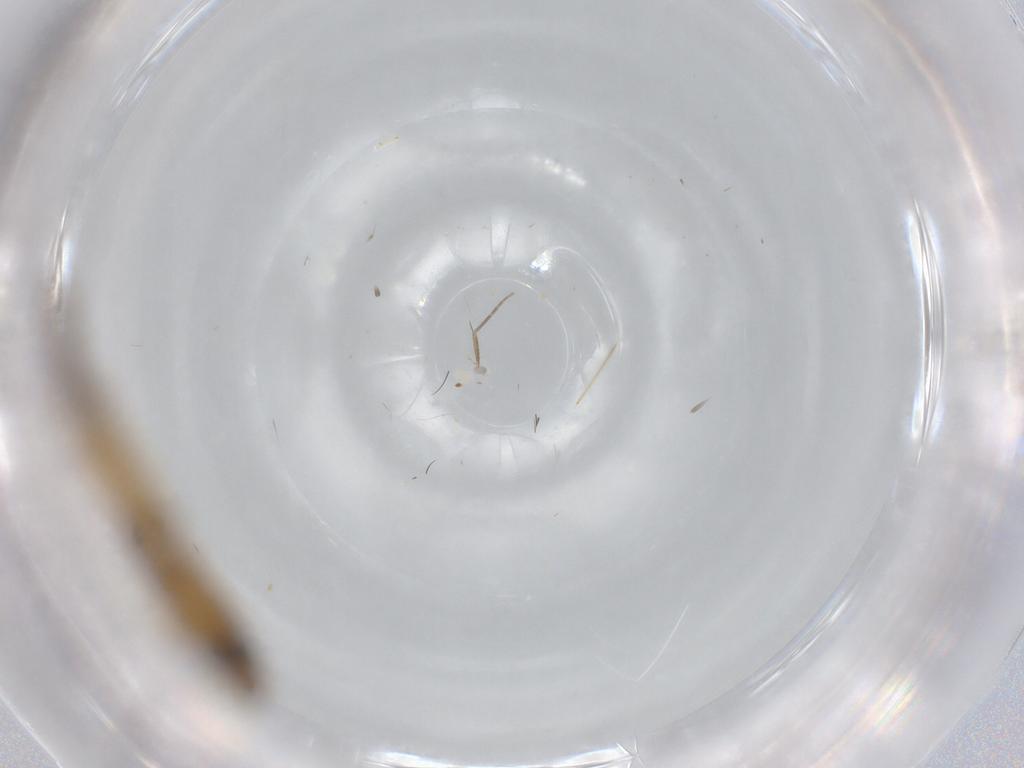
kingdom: Animalia
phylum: Arthropoda
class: Insecta
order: Diptera
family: Mycetophilidae
